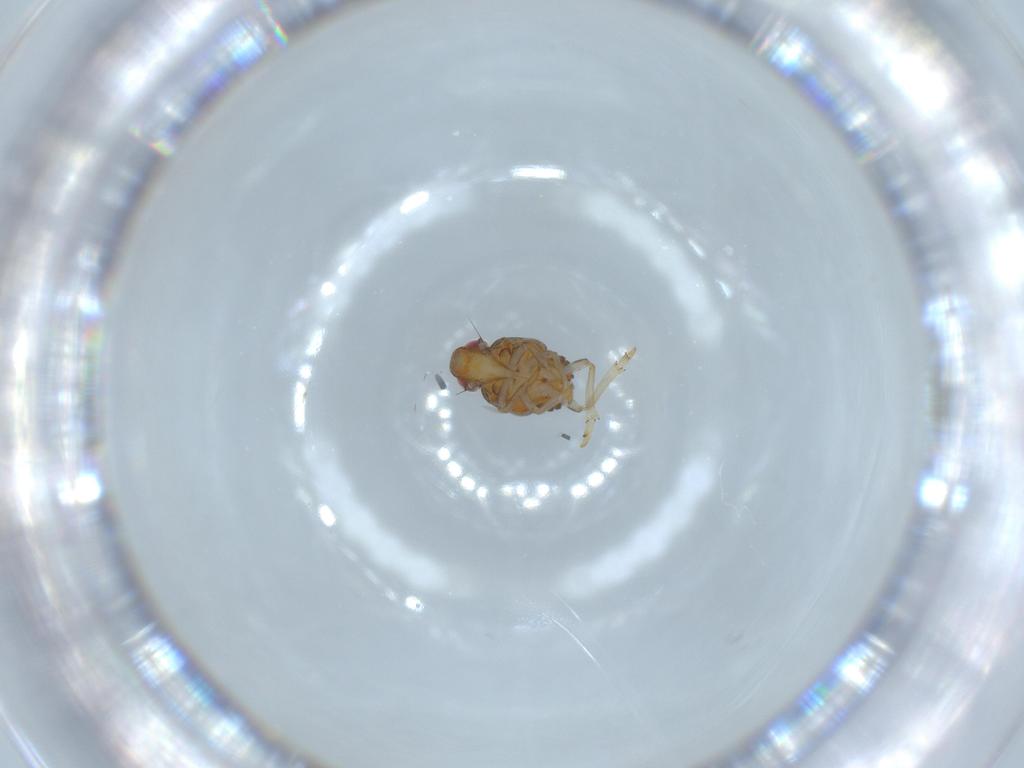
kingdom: Animalia
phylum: Arthropoda
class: Insecta
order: Hemiptera
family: Issidae
